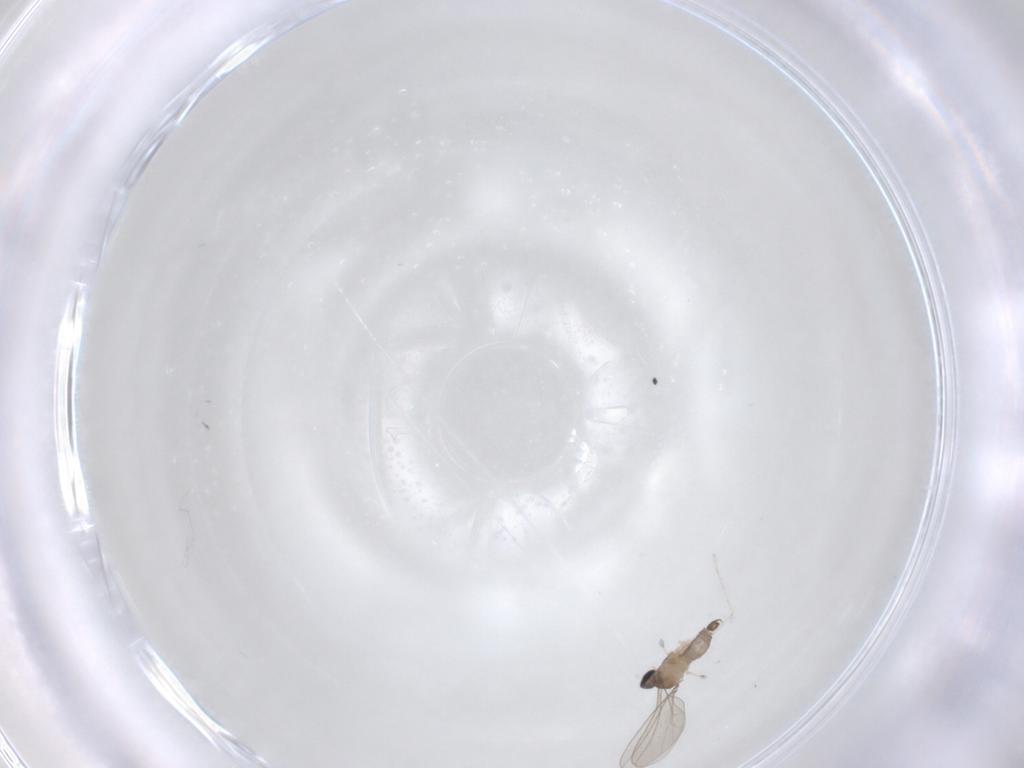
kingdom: Animalia
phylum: Arthropoda
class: Insecta
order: Diptera
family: Cecidomyiidae
